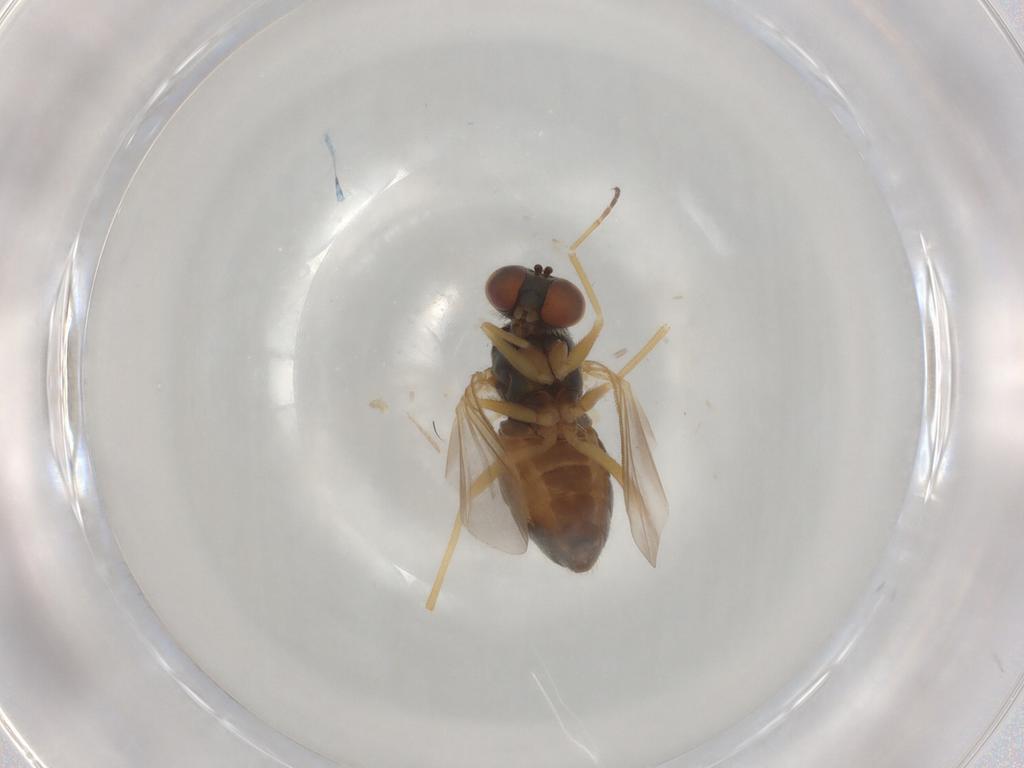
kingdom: Animalia
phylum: Arthropoda
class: Insecta
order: Diptera
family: Dolichopodidae
